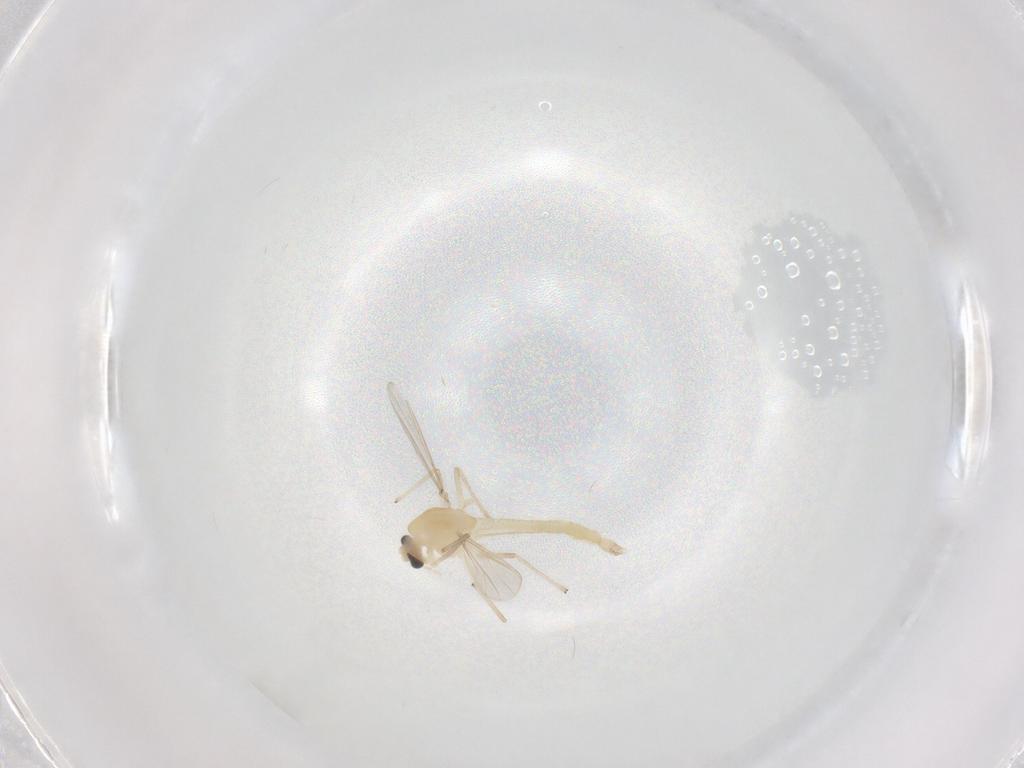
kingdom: Animalia
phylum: Arthropoda
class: Insecta
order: Diptera
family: Chironomidae
